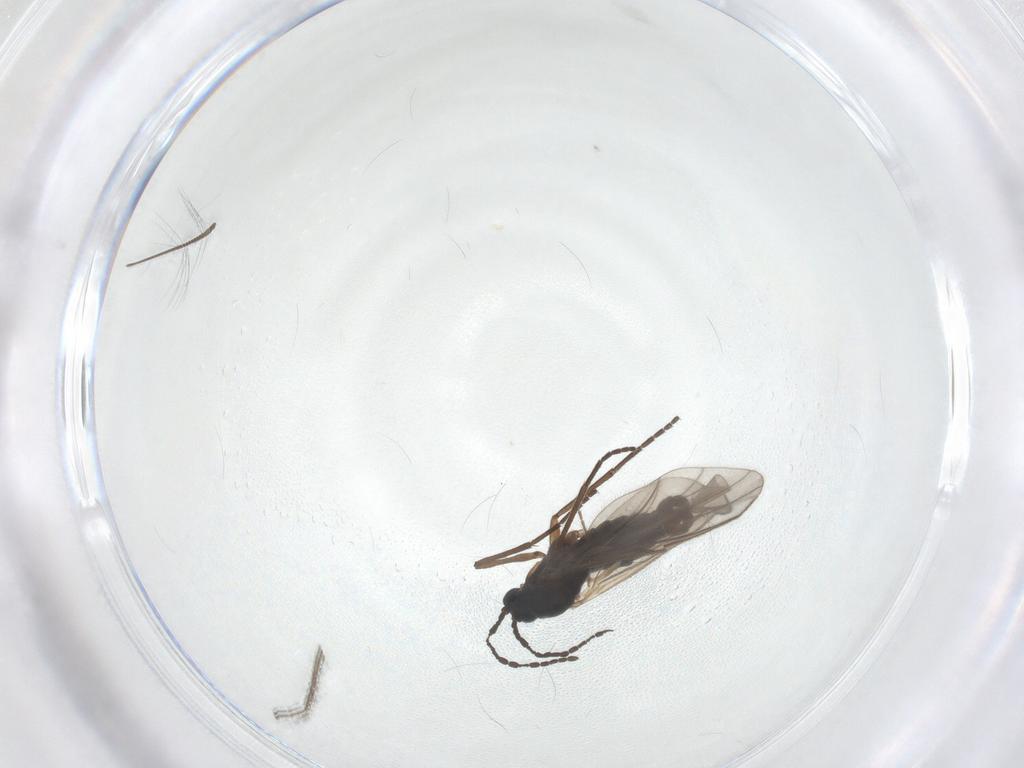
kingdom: Animalia
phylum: Arthropoda
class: Insecta
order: Diptera
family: Sciaridae
